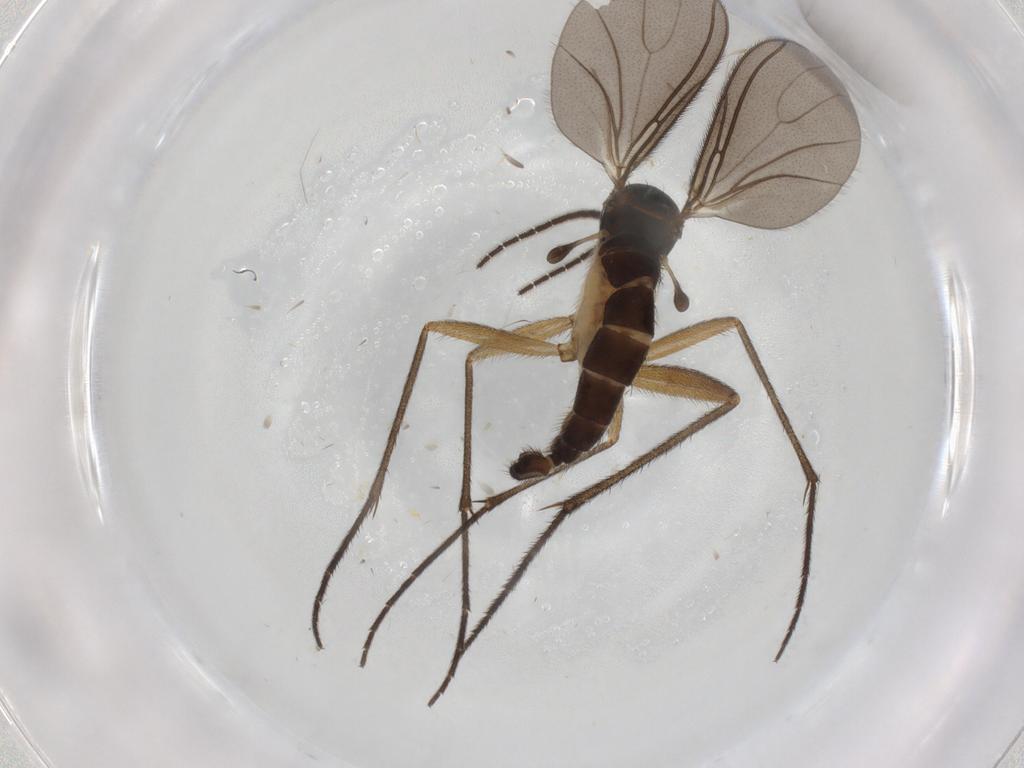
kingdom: Animalia
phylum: Arthropoda
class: Insecta
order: Diptera
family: Sciaridae
